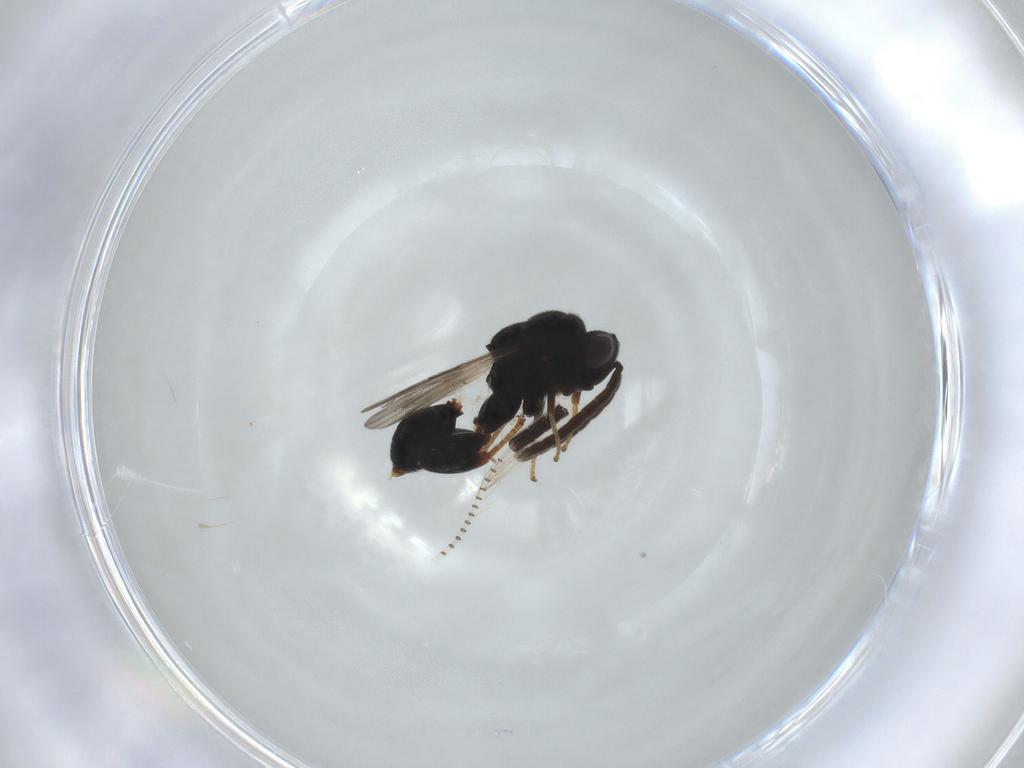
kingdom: Animalia
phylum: Arthropoda
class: Insecta
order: Hymenoptera
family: Chalcididae
